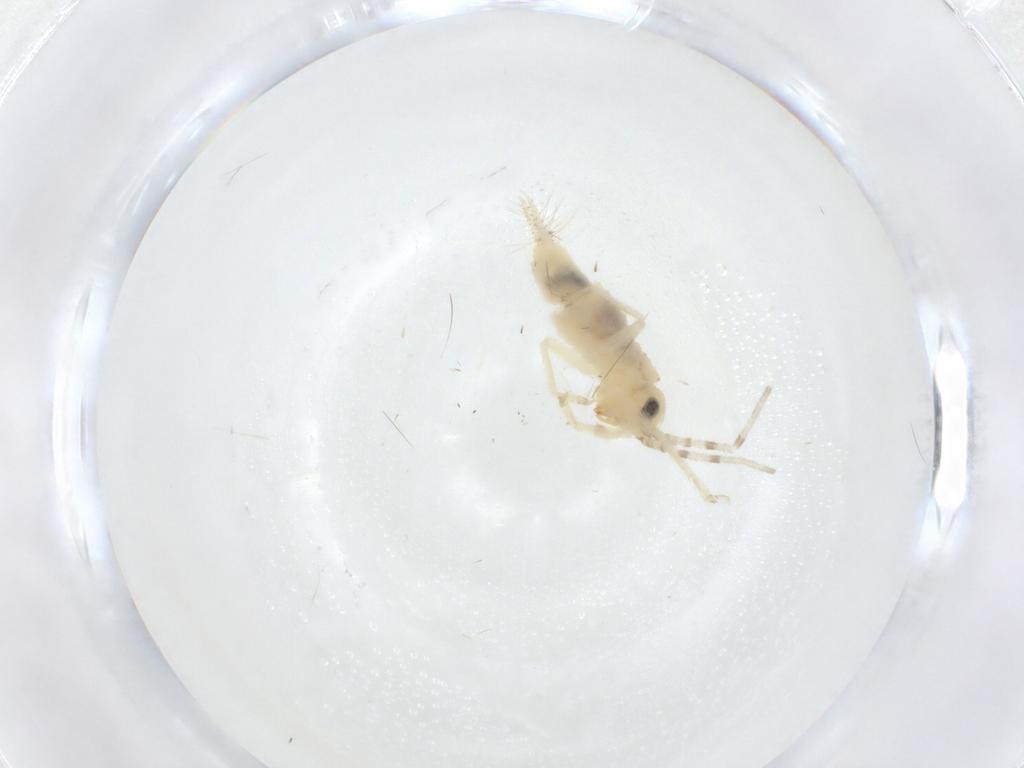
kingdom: Animalia
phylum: Arthropoda
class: Insecta
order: Orthoptera
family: Trigonidiidae
